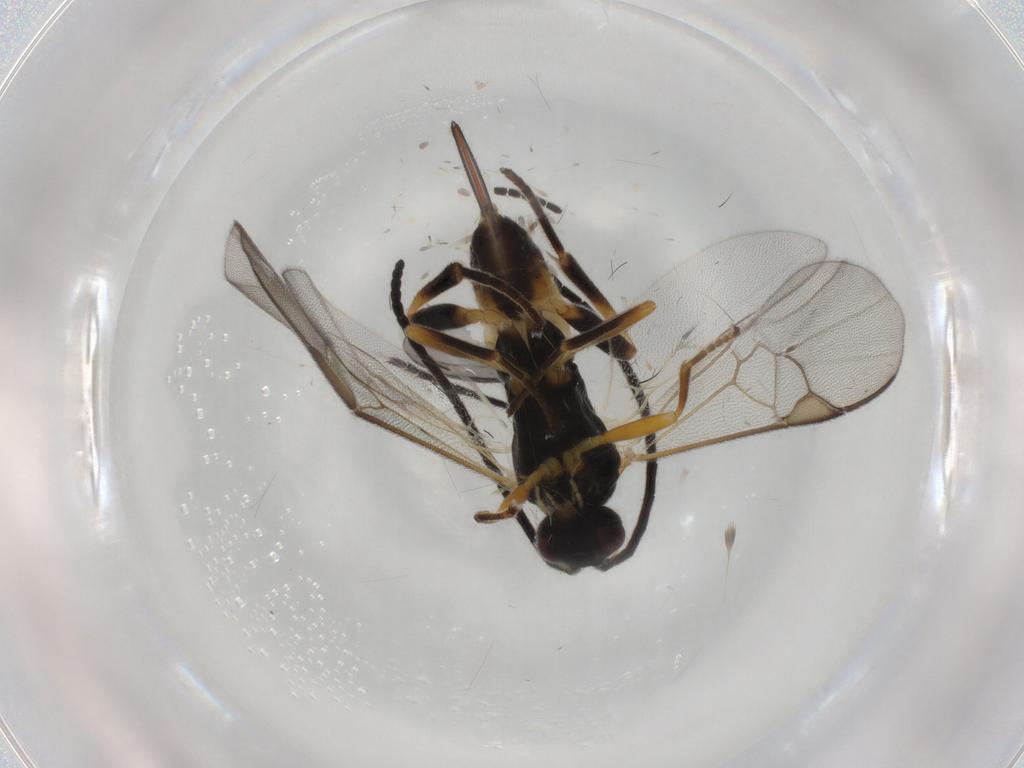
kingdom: Animalia
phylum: Arthropoda
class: Insecta
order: Hymenoptera
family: Braconidae
